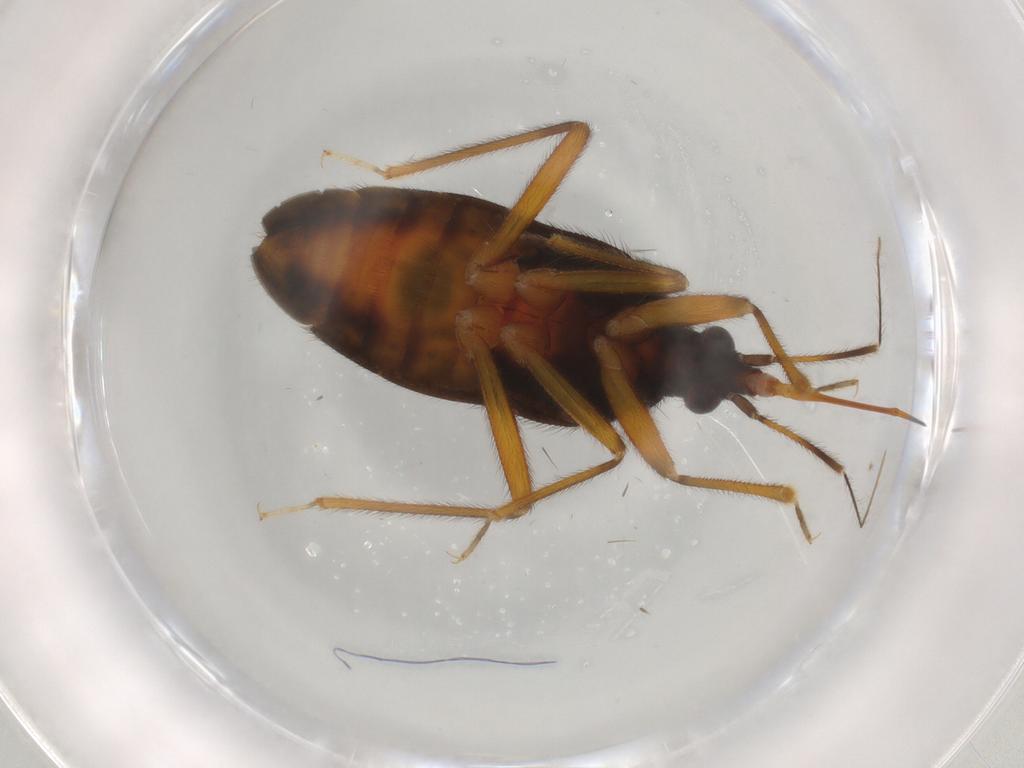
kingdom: Animalia
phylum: Arthropoda
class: Insecta
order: Hemiptera
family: Anthocoridae
